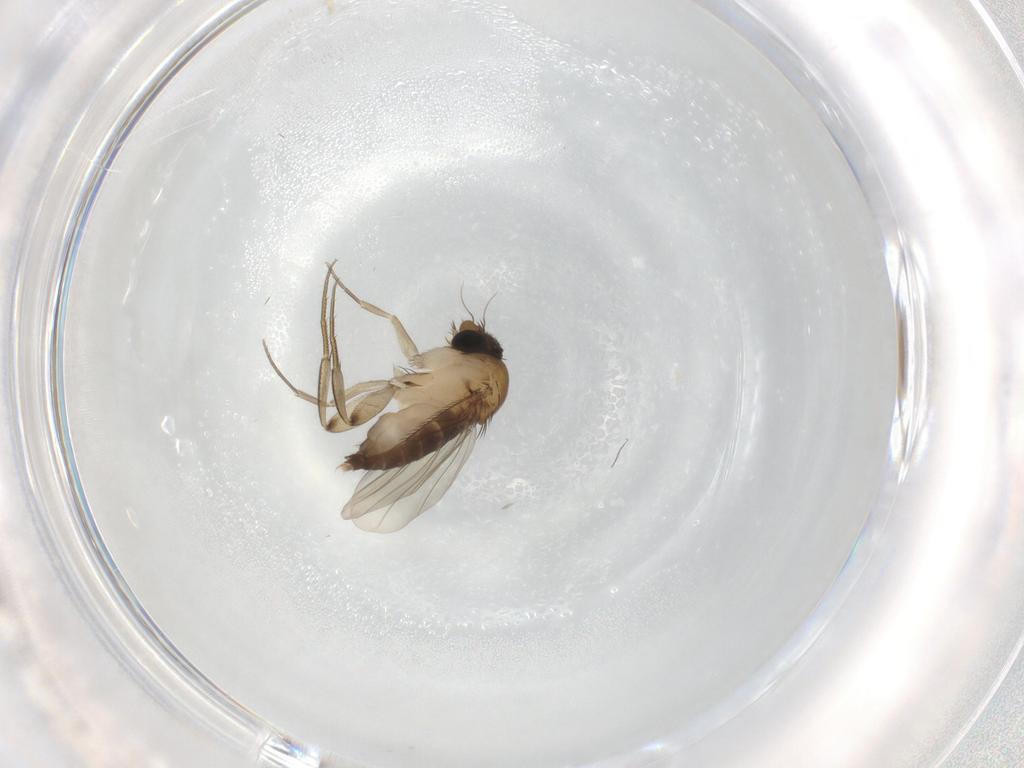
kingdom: Animalia
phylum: Arthropoda
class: Insecta
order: Diptera
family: Phoridae
